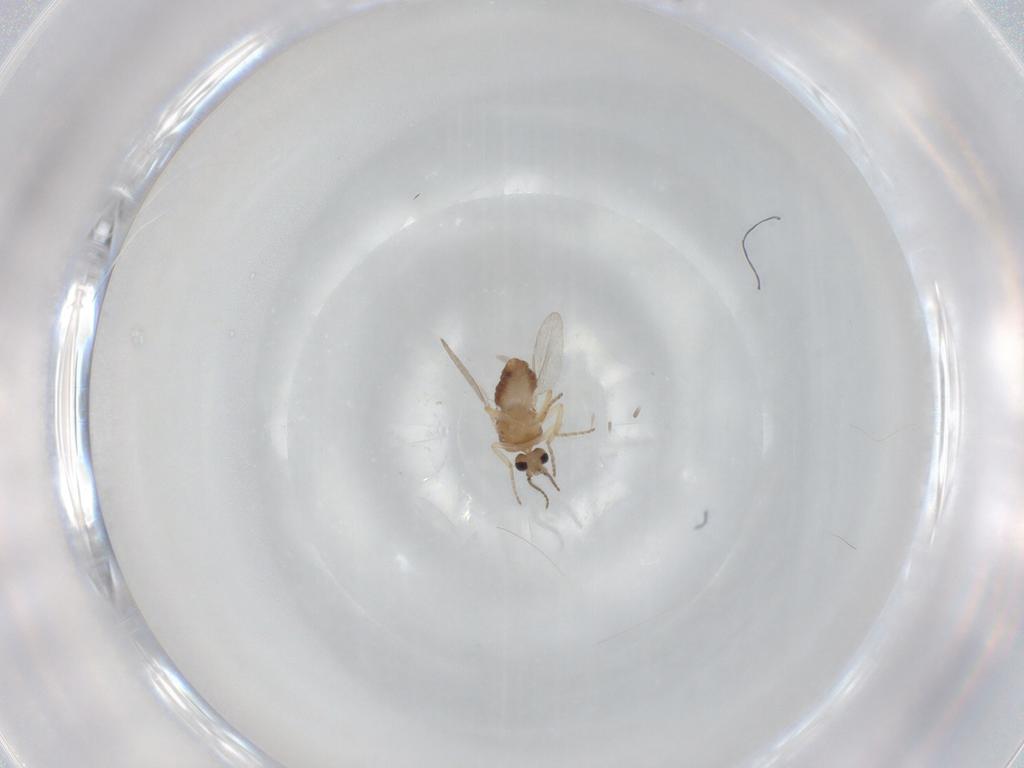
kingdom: Animalia
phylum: Arthropoda
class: Insecta
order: Diptera
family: Ceratopogonidae
